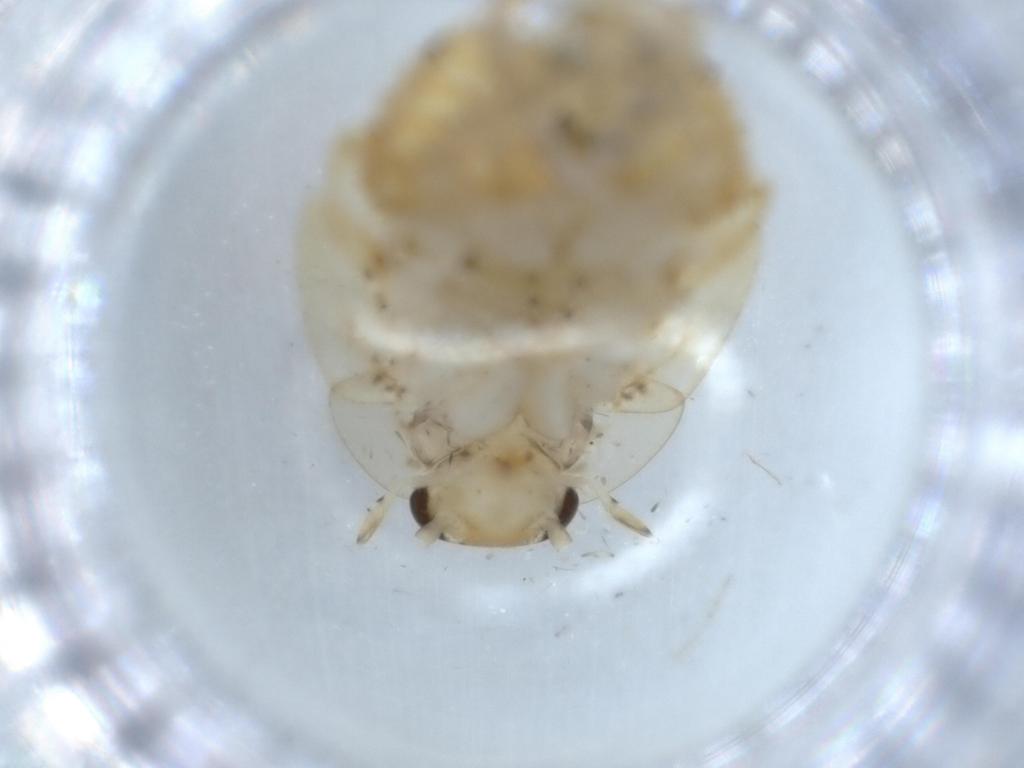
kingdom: Animalia
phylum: Arthropoda
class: Insecta
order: Blattodea
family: Ectobiidae
